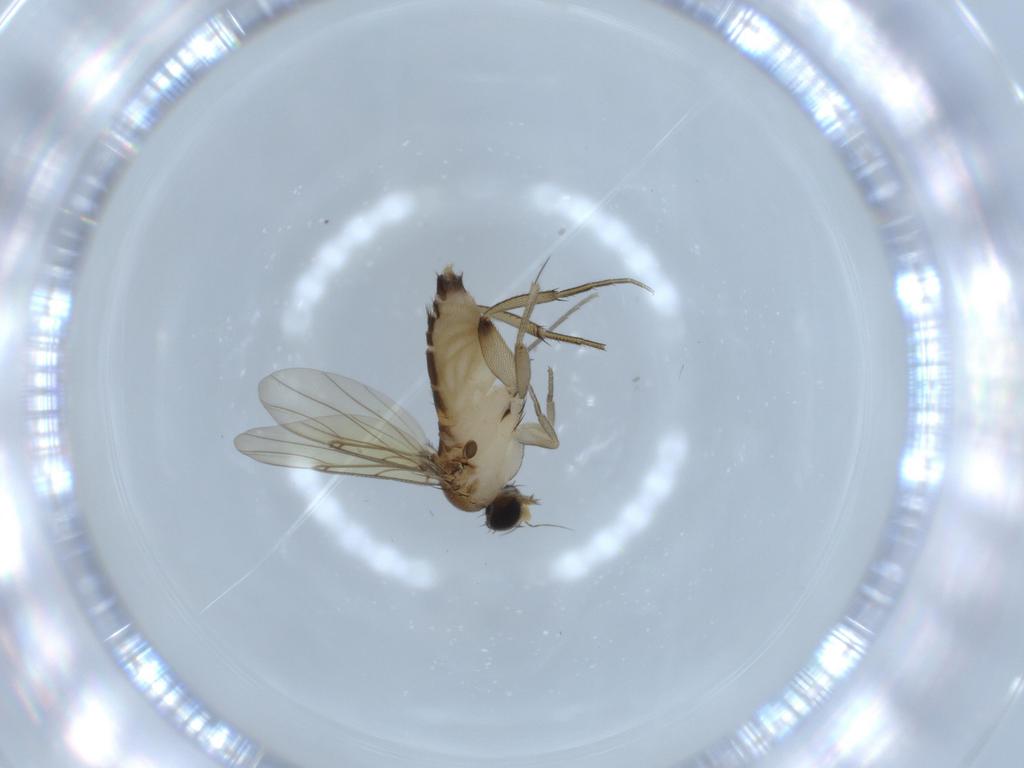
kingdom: Animalia
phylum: Arthropoda
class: Insecta
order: Diptera
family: Phoridae
